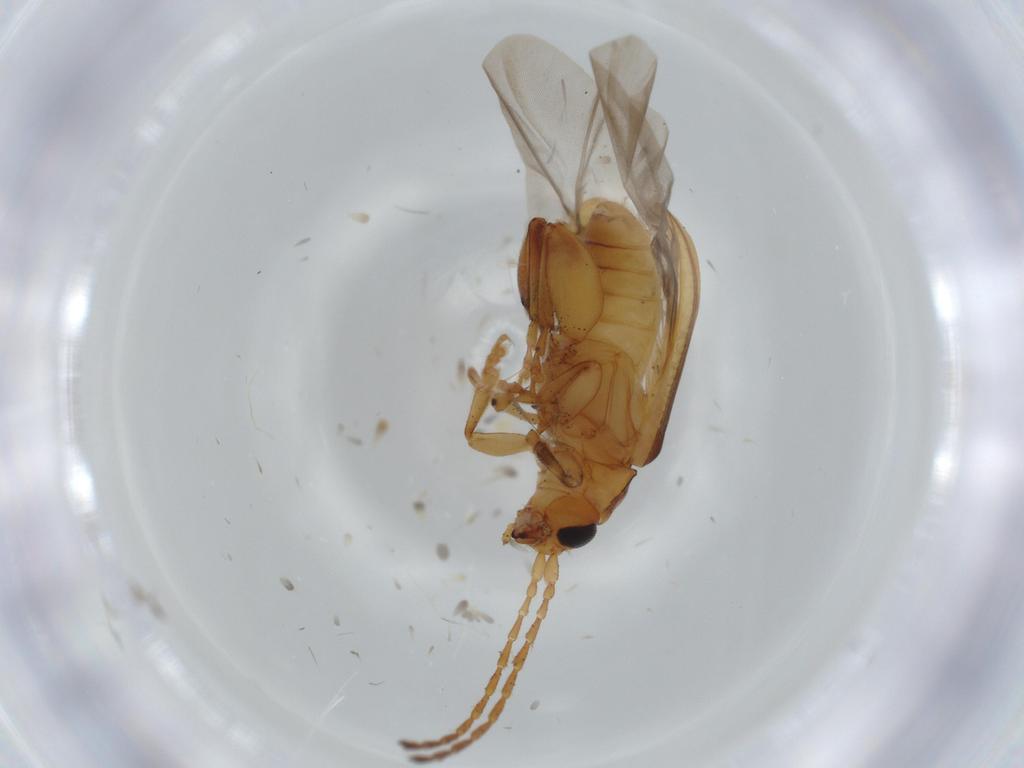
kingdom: Animalia
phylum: Arthropoda
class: Insecta
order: Coleoptera
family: Chrysomelidae
